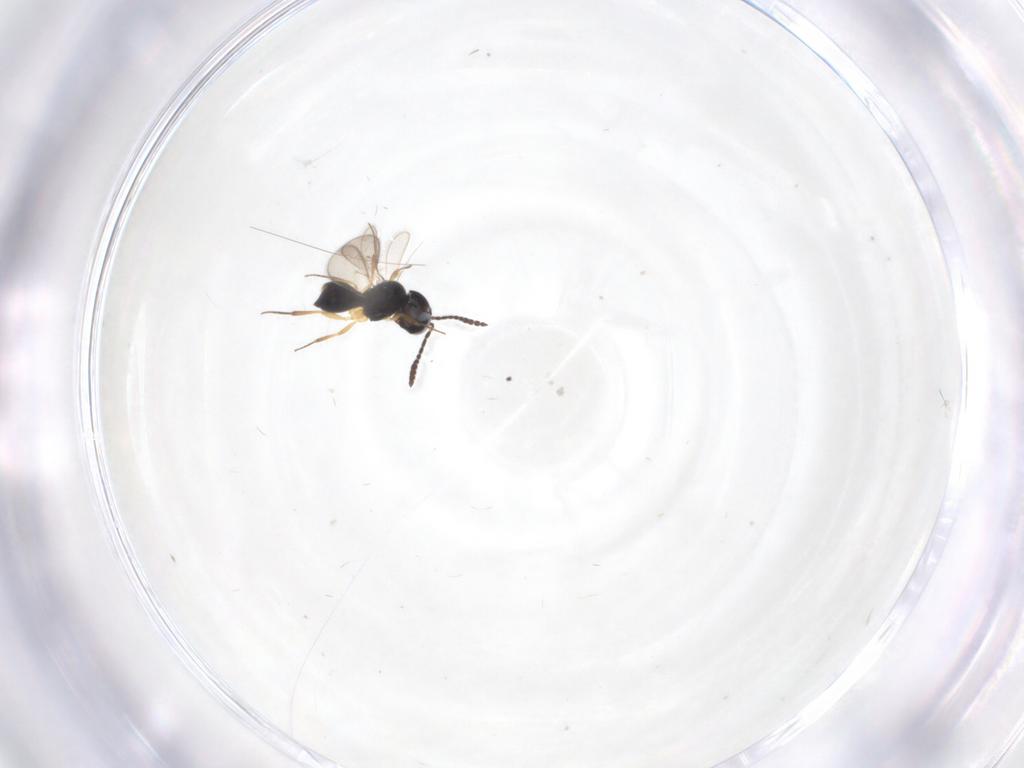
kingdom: Animalia
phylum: Arthropoda
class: Insecta
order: Hymenoptera
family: Scelionidae
